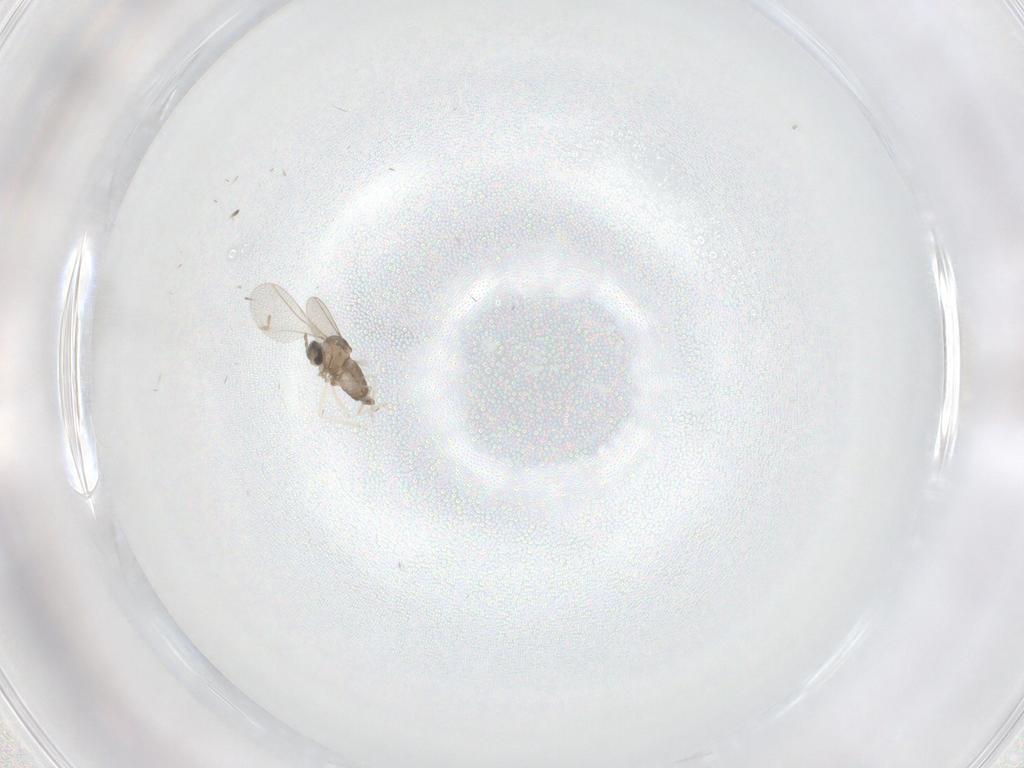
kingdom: Animalia
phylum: Arthropoda
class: Insecta
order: Diptera
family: Cecidomyiidae
